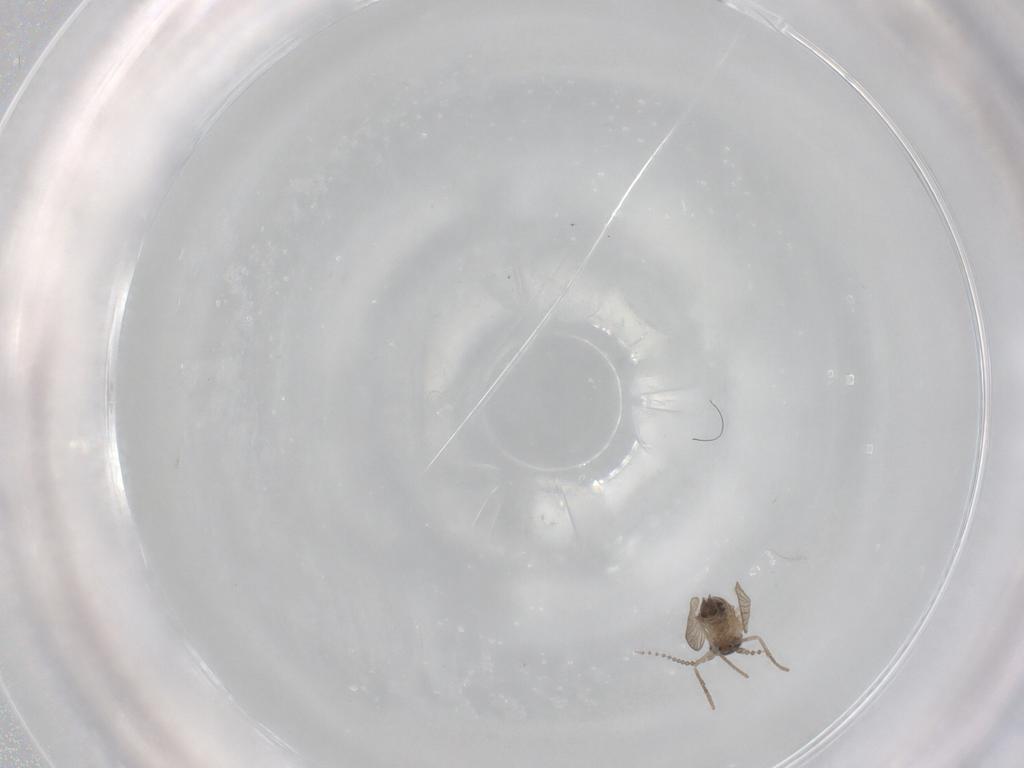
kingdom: Animalia
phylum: Arthropoda
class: Insecta
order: Diptera
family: Psychodidae
